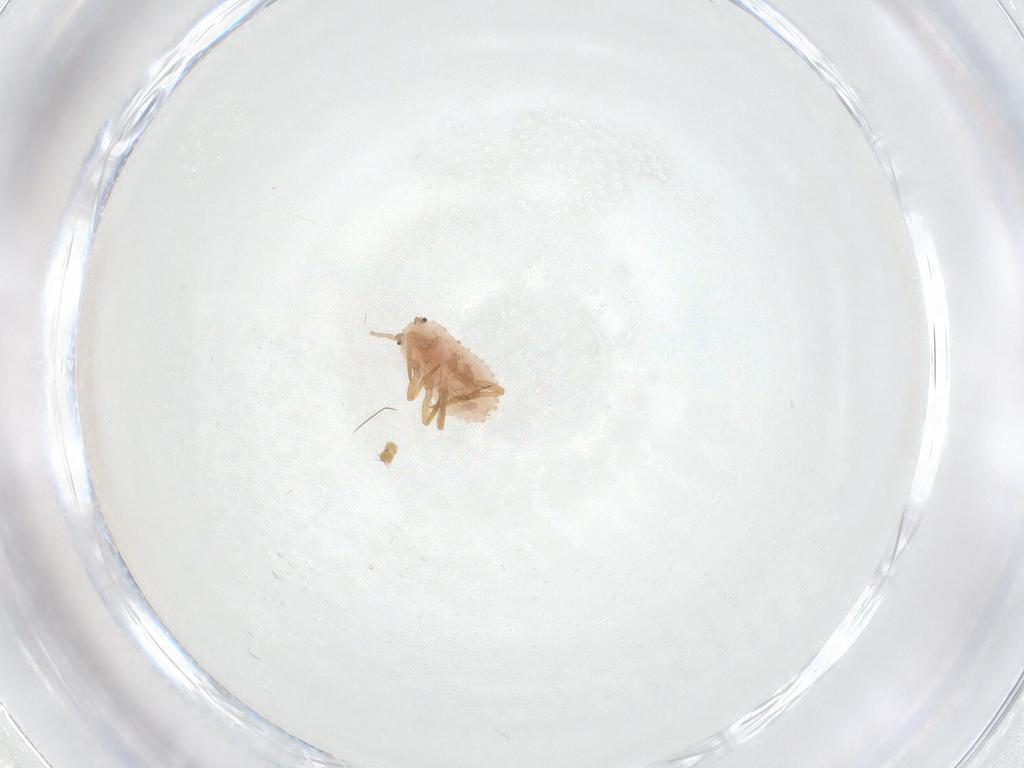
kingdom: Animalia
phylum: Arthropoda
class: Insecta
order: Hemiptera
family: Putoidae
